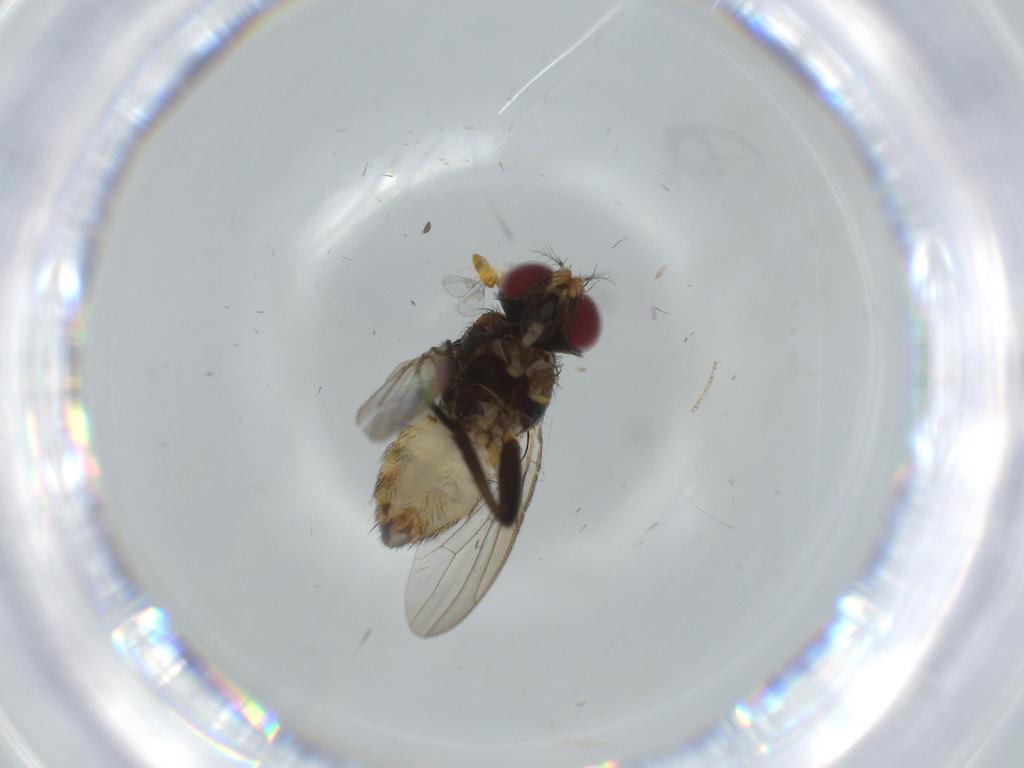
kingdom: Animalia
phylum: Arthropoda
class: Insecta
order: Diptera
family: Anthomyiidae
